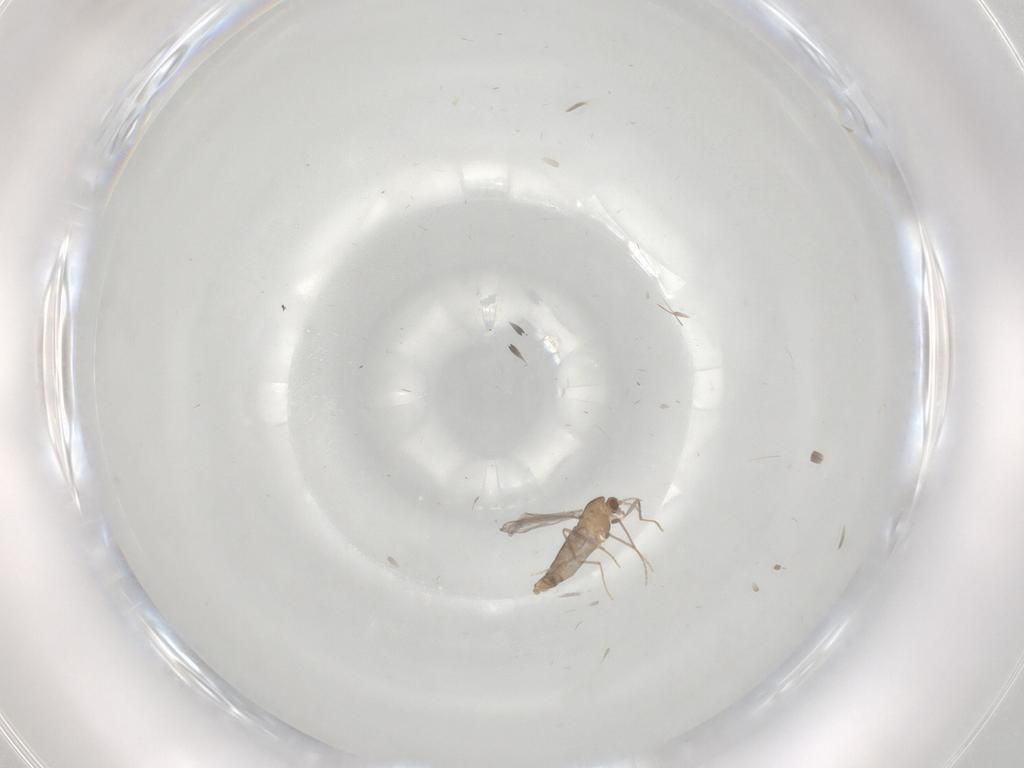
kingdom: Animalia
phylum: Arthropoda
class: Insecta
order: Diptera
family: Chironomidae
